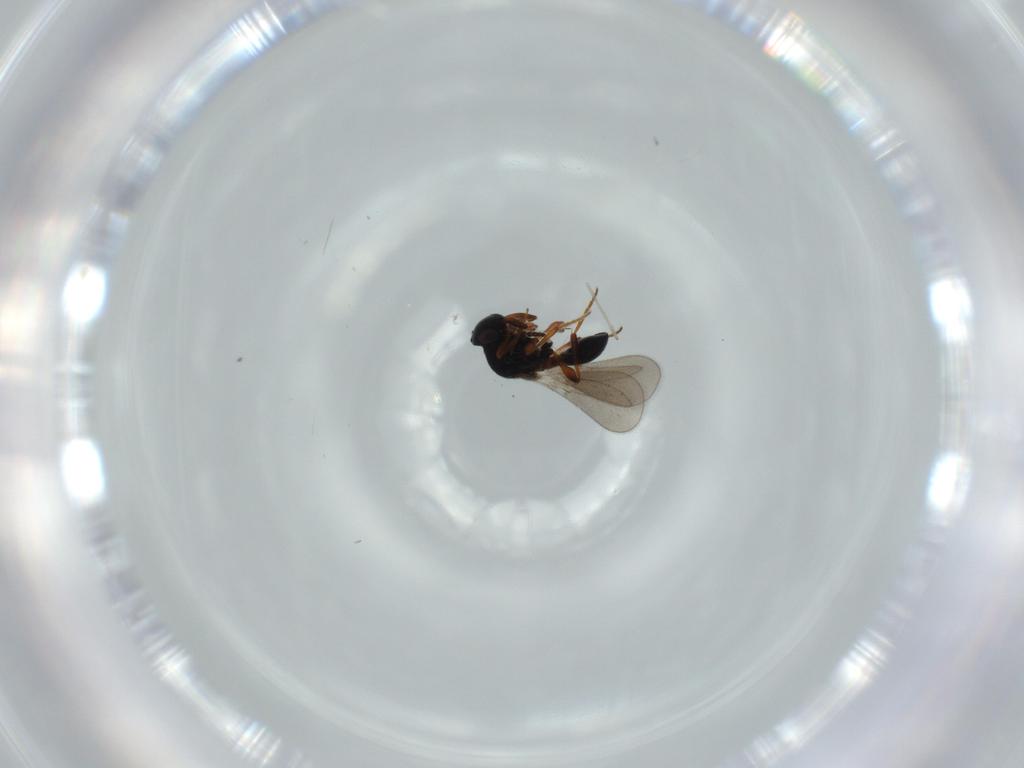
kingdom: Animalia
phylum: Arthropoda
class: Insecta
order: Hymenoptera
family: Platygastridae
